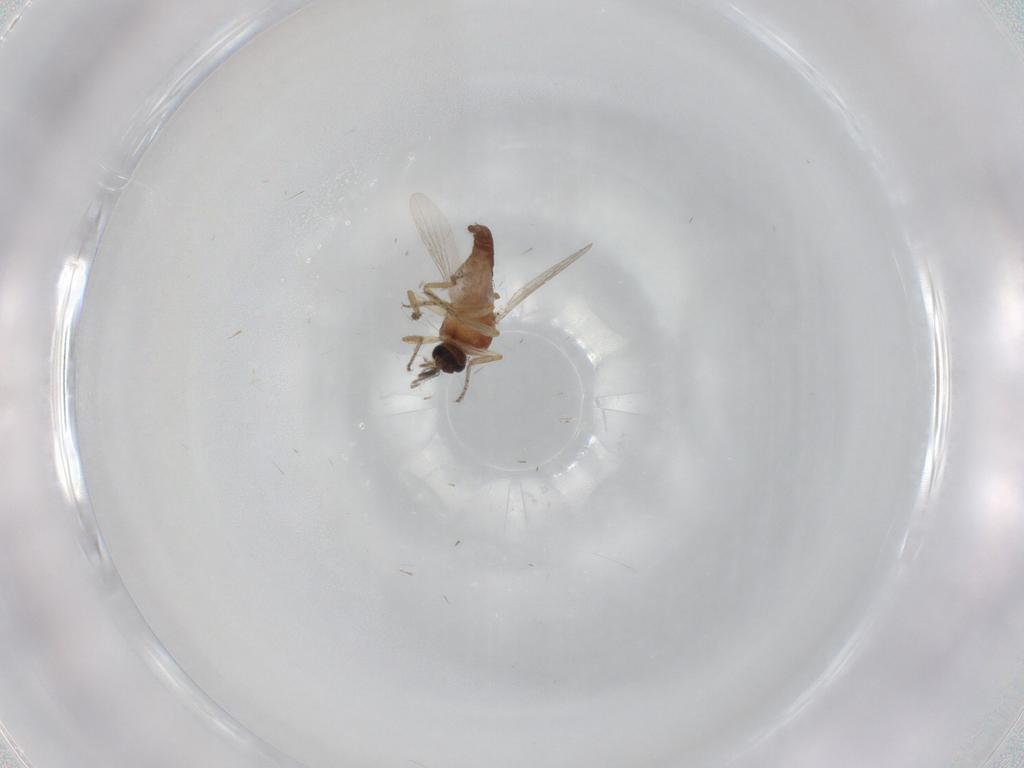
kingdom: Animalia
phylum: Arthropoda
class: Insecta
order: Diptera
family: Ceratopogonidae
